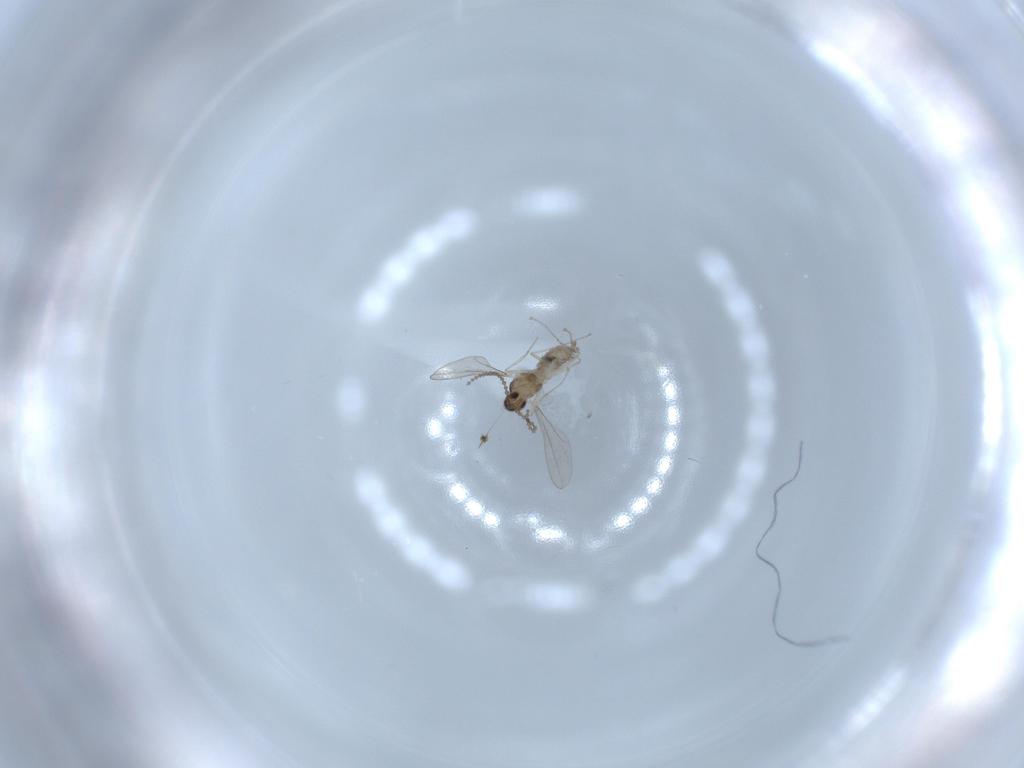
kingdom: Animalia
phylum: Arthropoda
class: Insecta
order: Diptera
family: Cecidomyiidae
